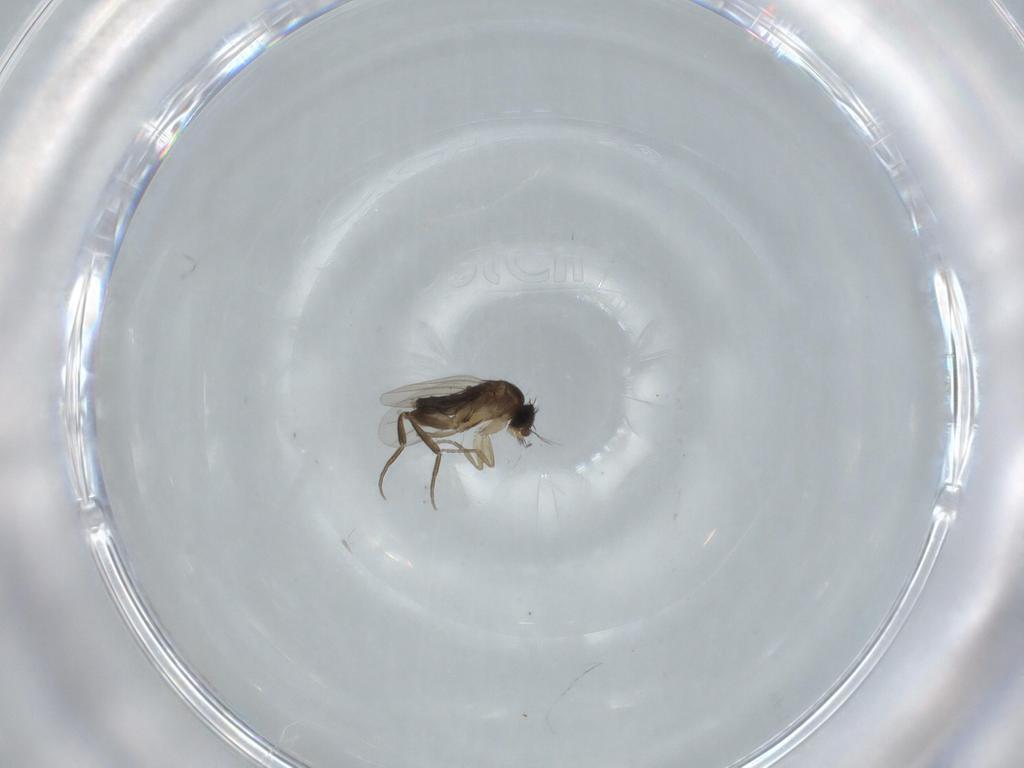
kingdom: Animalia
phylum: Arthropoda
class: Insecta
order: Diptera
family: Phoridae
